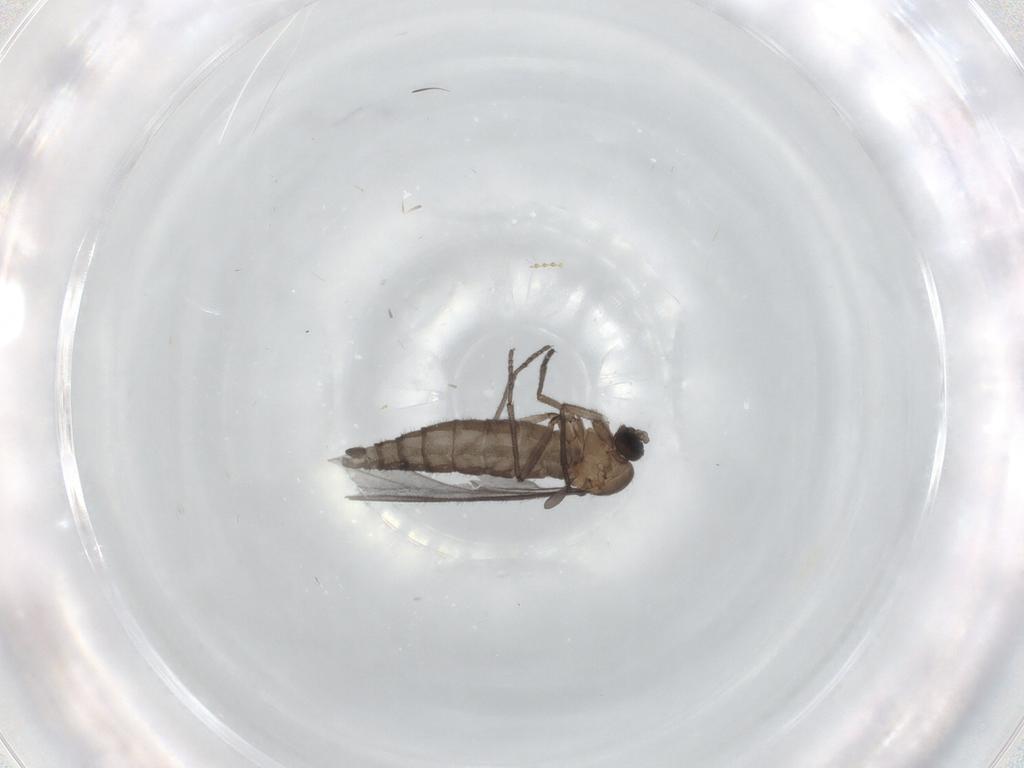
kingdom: Animalia
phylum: Arthropoda
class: Insecta
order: Diptera
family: Sciaridae
